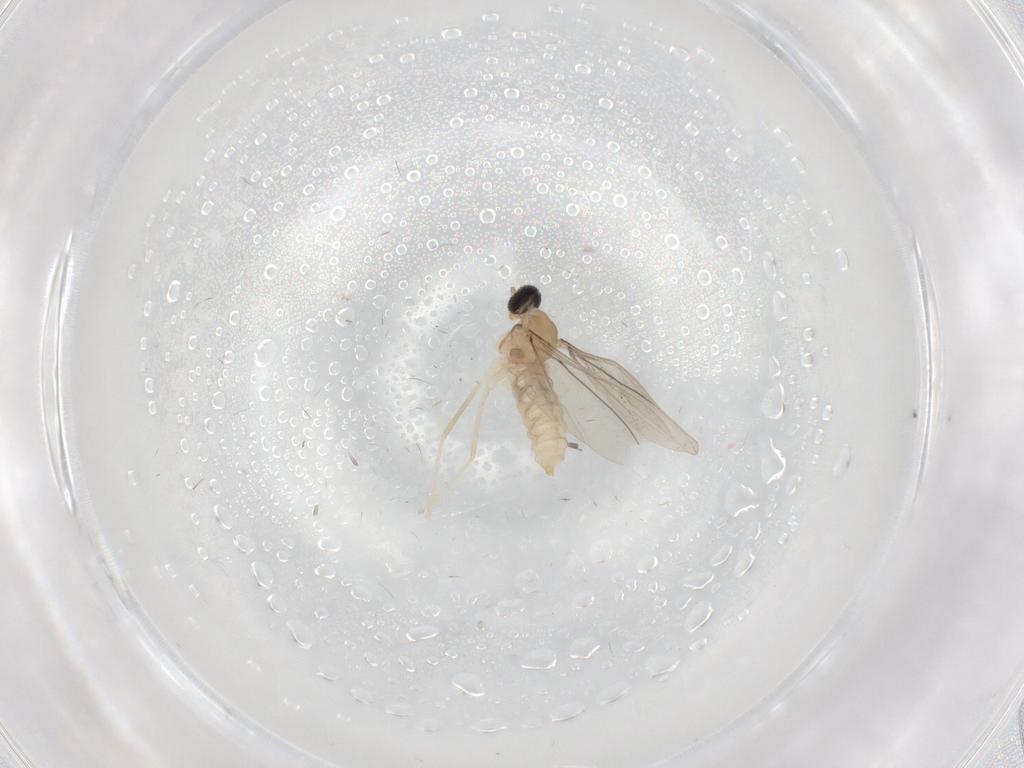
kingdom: Animalia
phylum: Arthropoda
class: Insecta
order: Diptera
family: Cecidomyiidae
